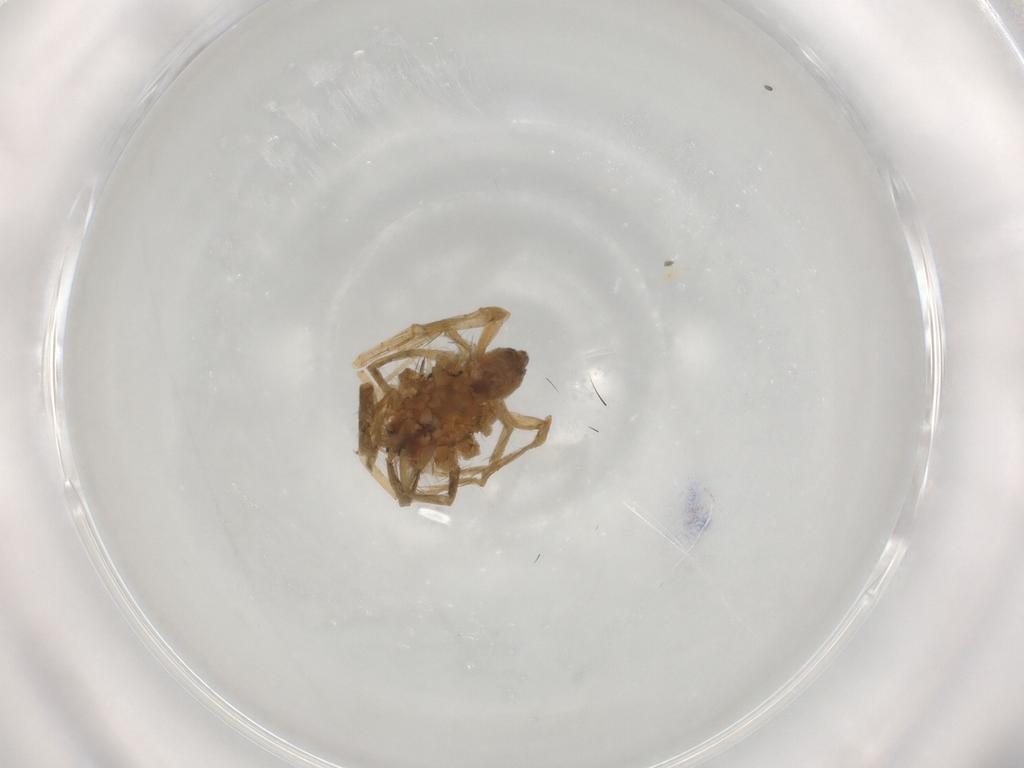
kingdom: Animalia
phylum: Arthropoda
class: Arachnida
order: Araneae
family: Lycosidae
